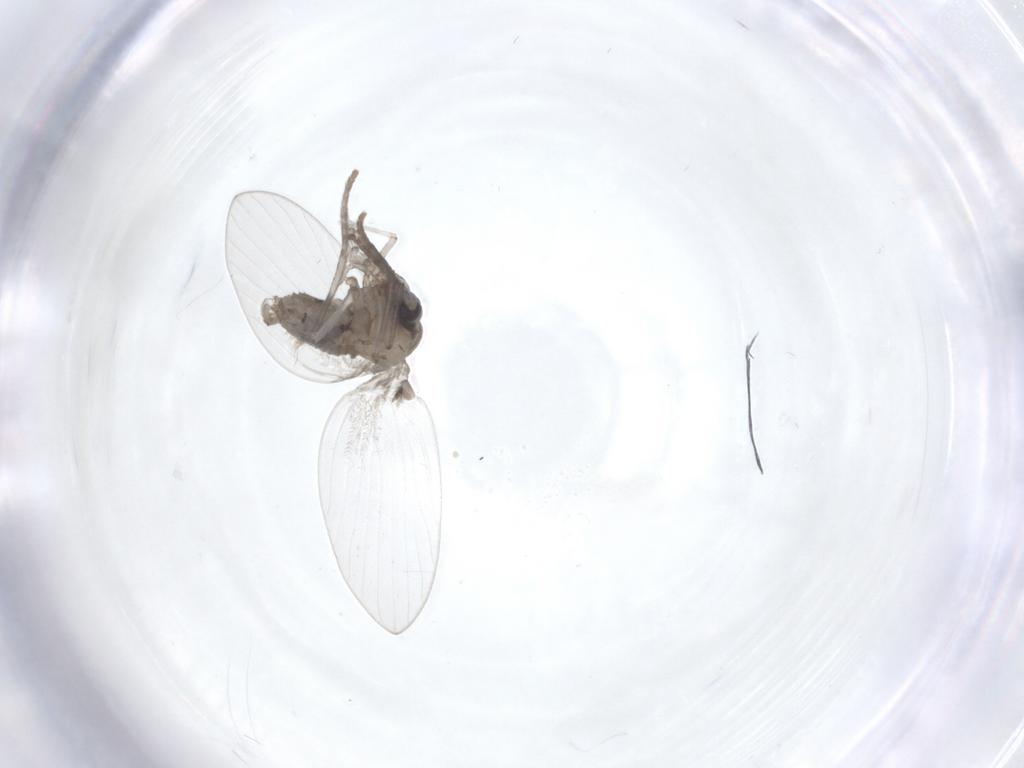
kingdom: Animalia
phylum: Arthropoda
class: Insecta
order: Diptera
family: Psychodidae
